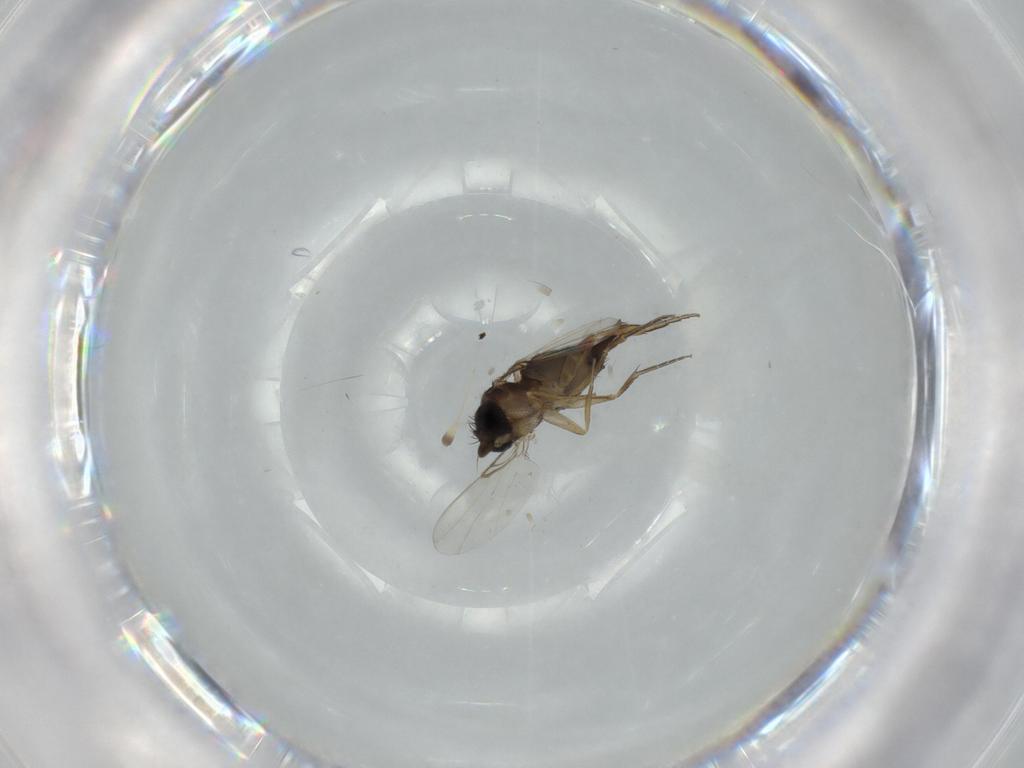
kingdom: Animalia
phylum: Arthropoda
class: Insecta
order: Diptera
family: Phoridae
